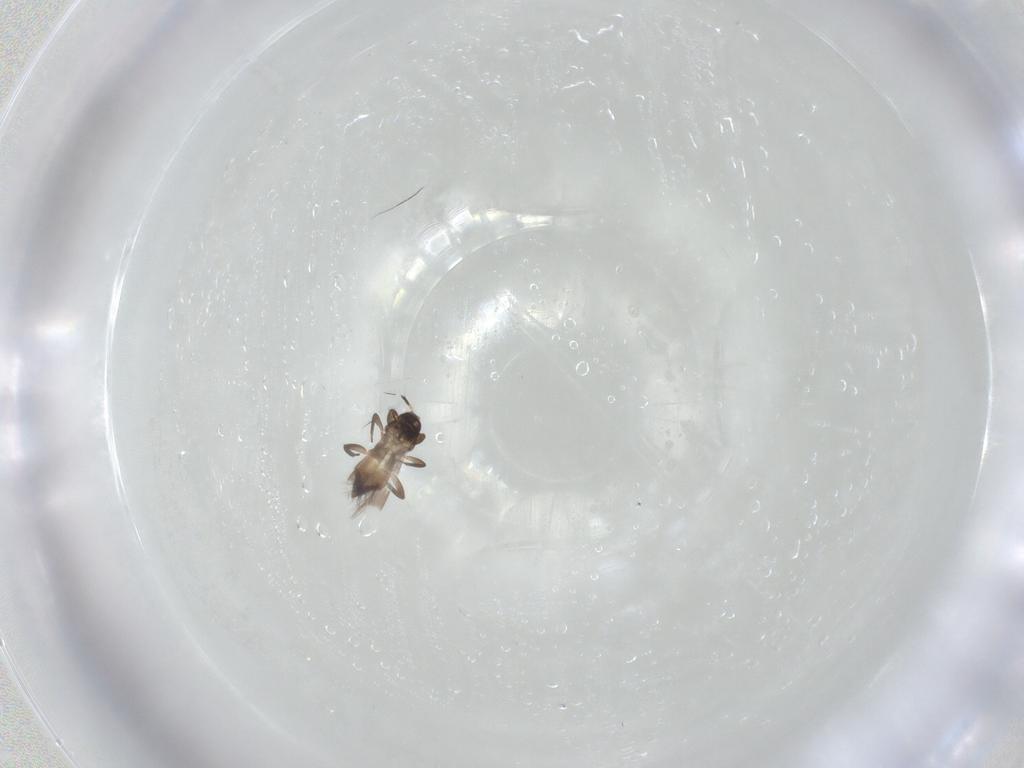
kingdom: Animalia
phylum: Arthropoda
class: Insecta
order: Thysanoptera
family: Aeolothripidae
